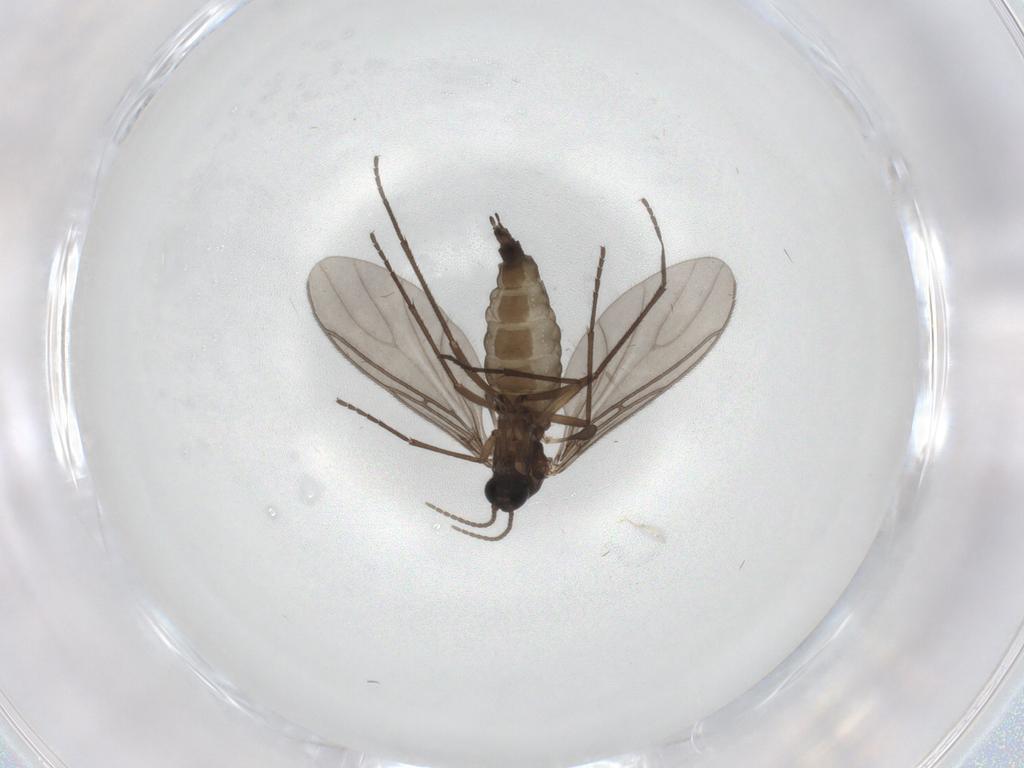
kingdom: Animalia
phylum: Arthropoda
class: Insecta
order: Diptera
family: Sciaridae
